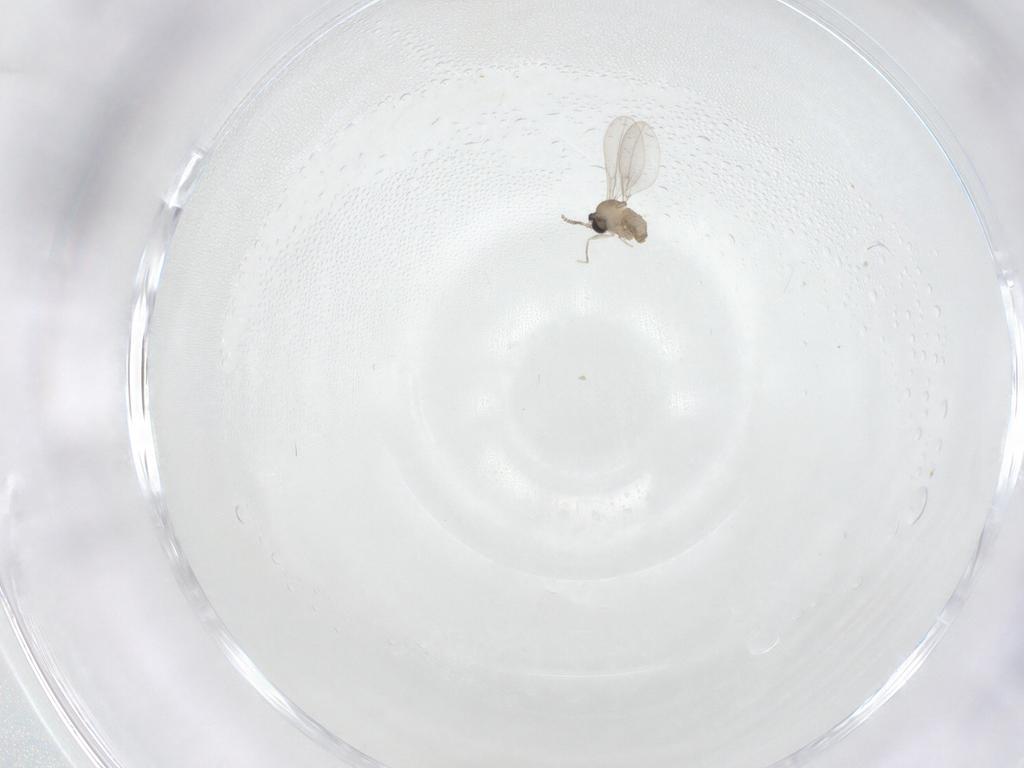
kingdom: Animalia
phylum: Arthropoda
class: Insecta
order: Diptera
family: Cecidomyiidae
